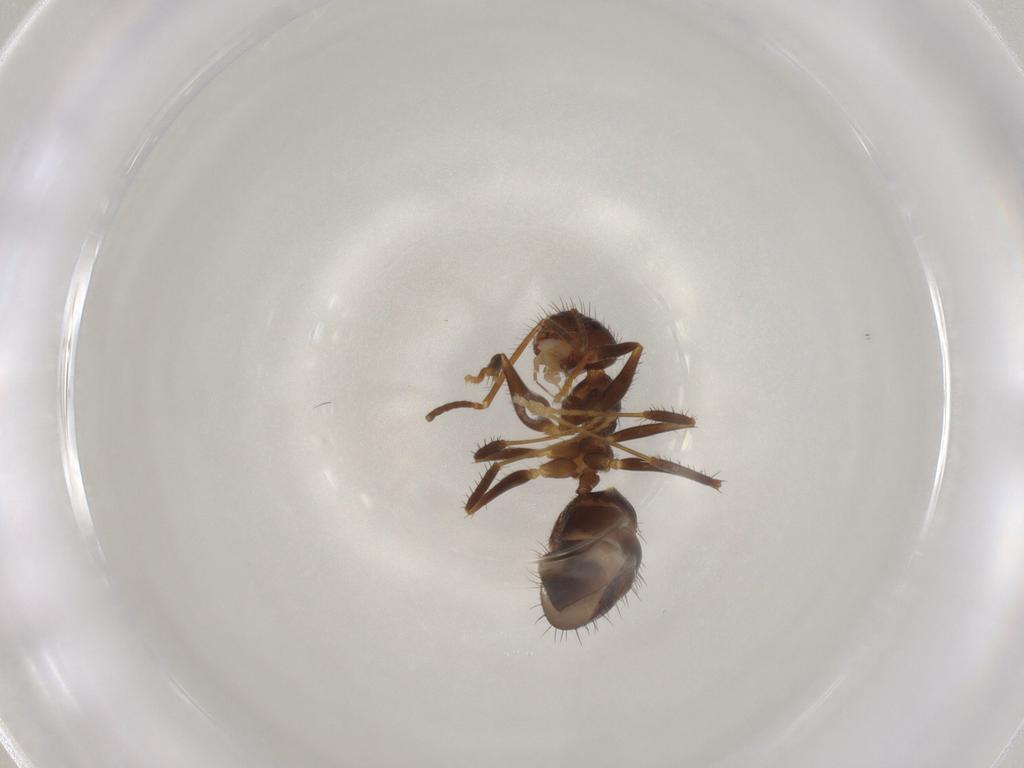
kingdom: Animalia
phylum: Arthropoda
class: Insecta
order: Hymenoptera
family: Formicidae
